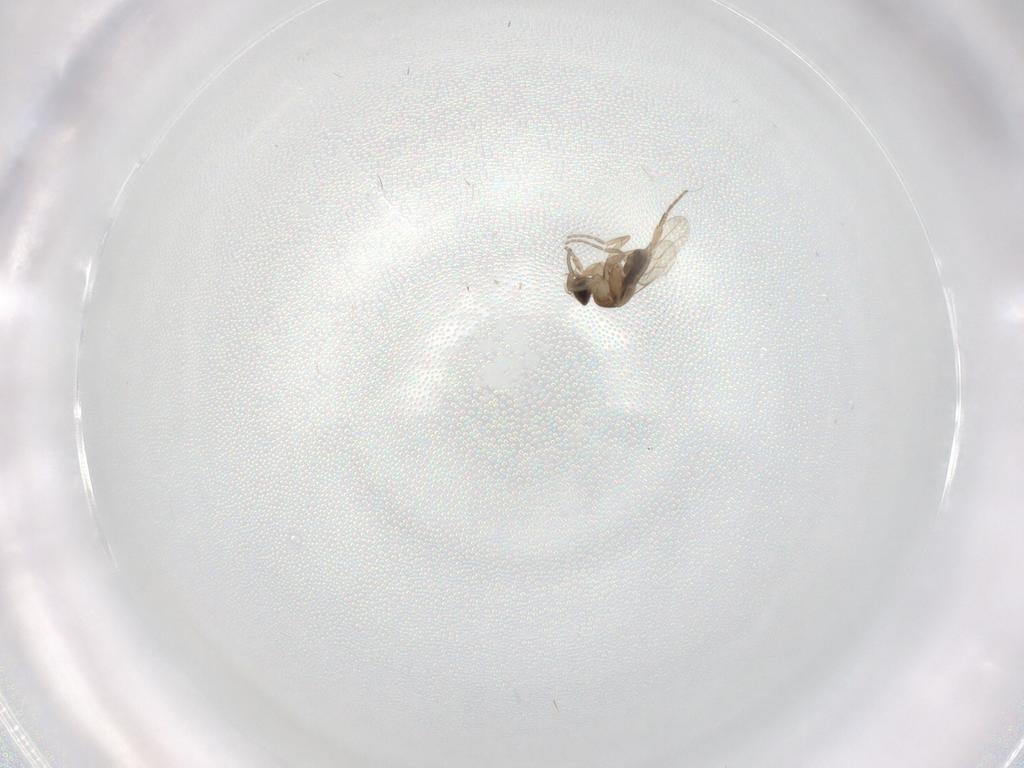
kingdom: Animalia
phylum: Arthropoda
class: Insecta
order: Diptera
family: Phoridae
